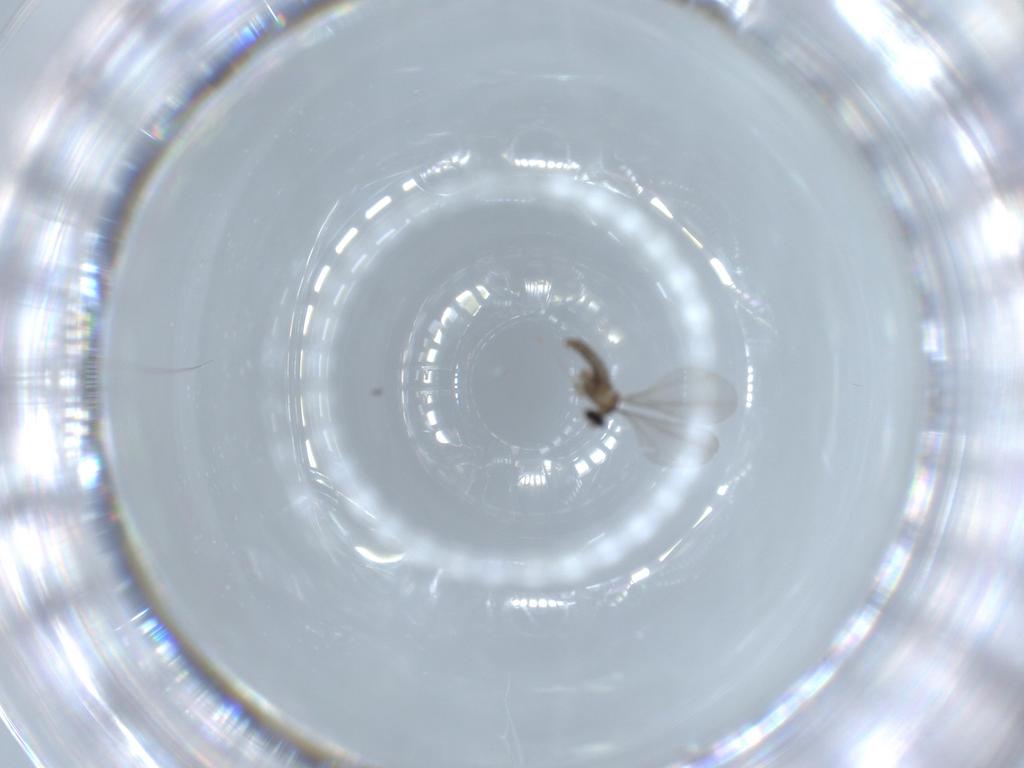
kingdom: Animalia
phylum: Arthropoda
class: Insecta
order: Diptera
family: Cecidomyiidae
